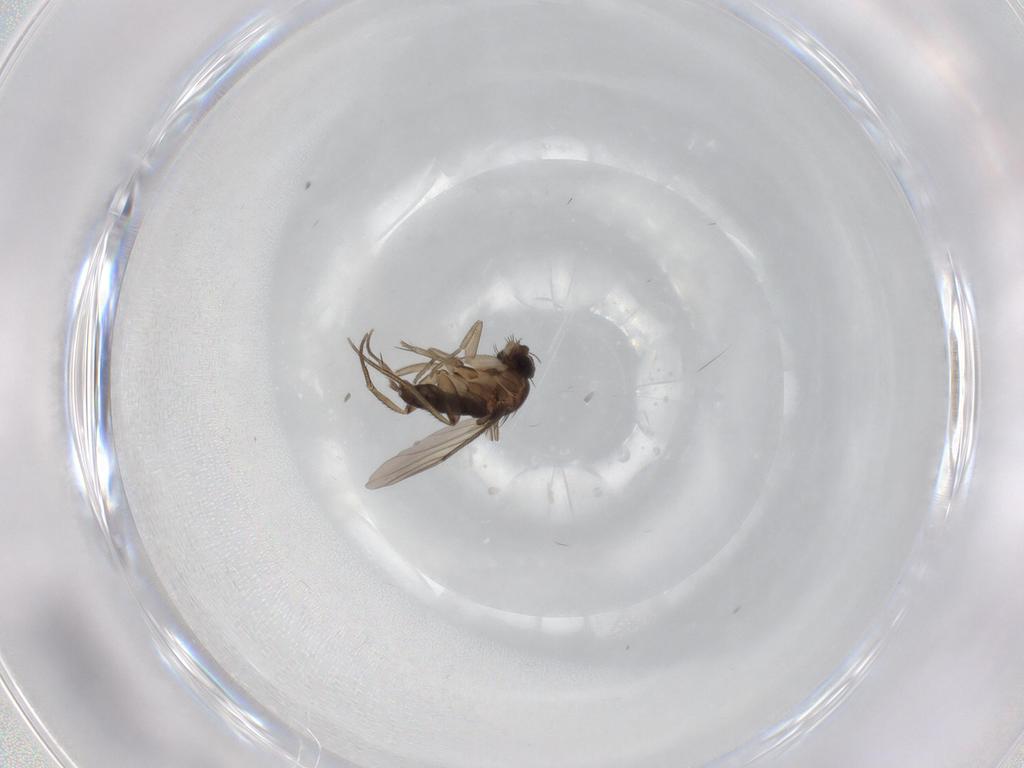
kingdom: Animalia
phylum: Arthropoda
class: Insecta
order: Diptera
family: Phoridae
